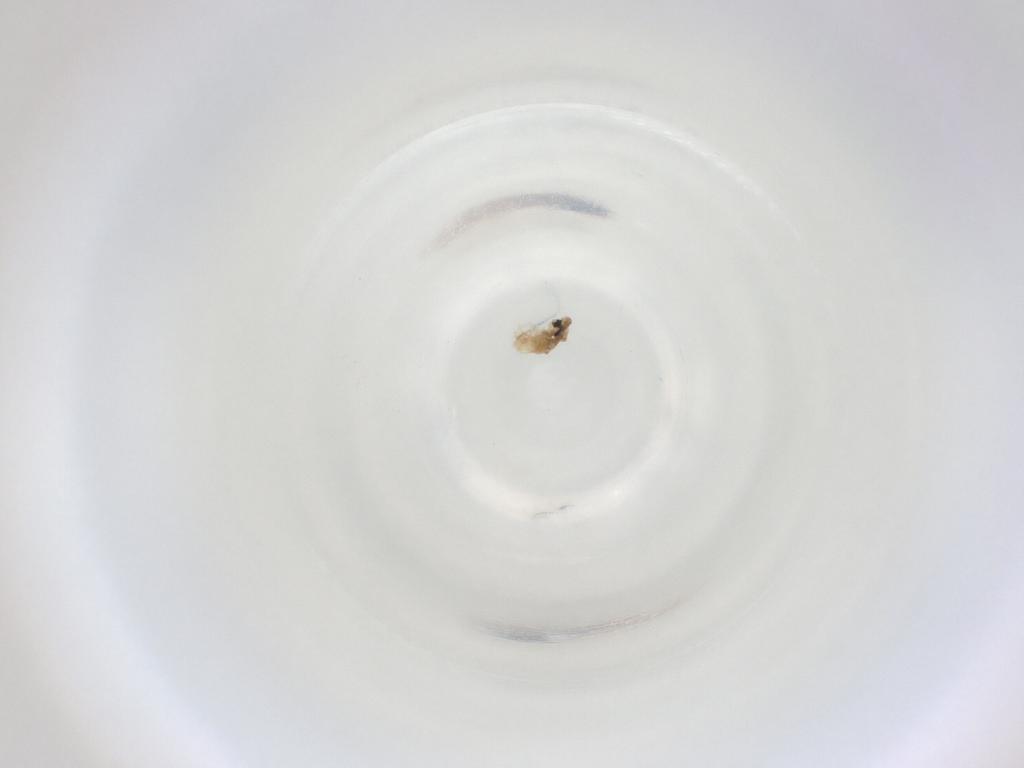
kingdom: Animalia
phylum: Arthropoda
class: Insecta
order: Diptera
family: Cecidomyiidae
